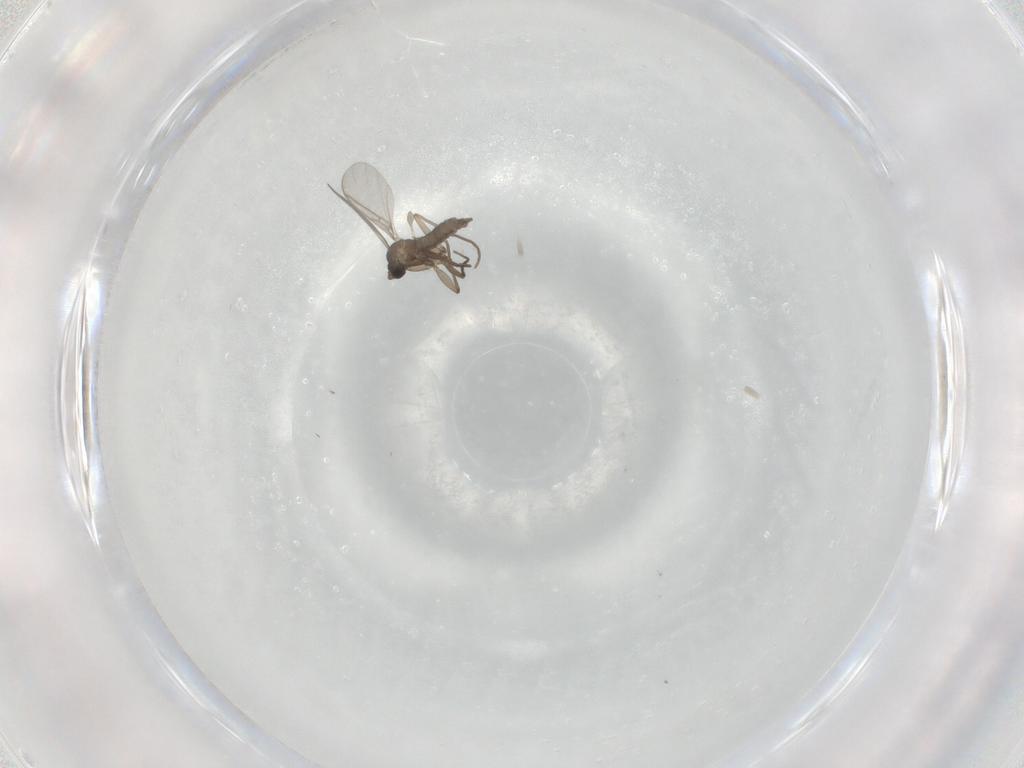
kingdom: Animalia
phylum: Arthropoda
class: Insecta
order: Diptera
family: Sciaridae
